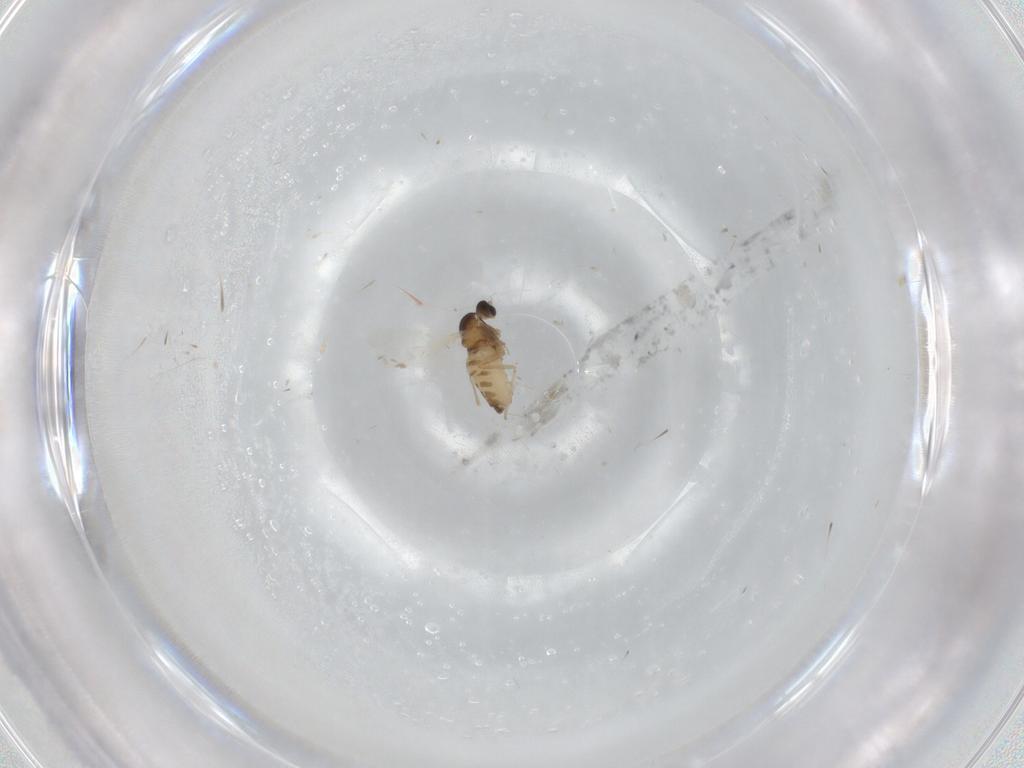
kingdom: Animalia
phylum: Arthropoda
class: Insecta
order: Diptera
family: Cecidomyiidae
